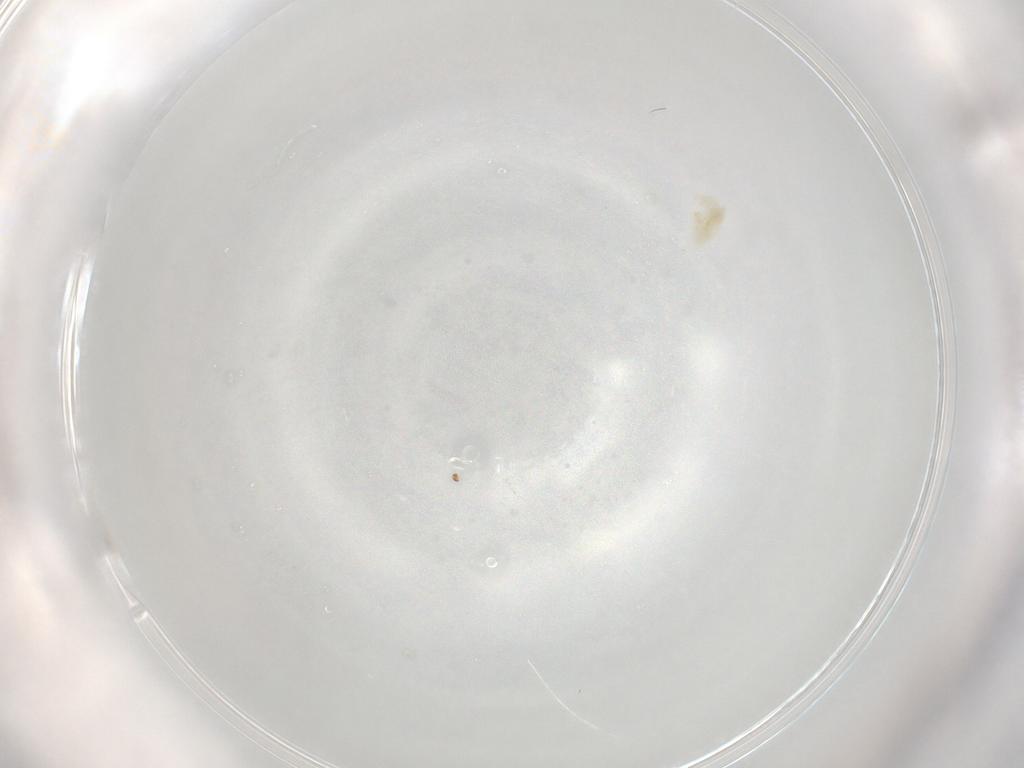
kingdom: Animalia
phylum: Arthropoda
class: Arachnida
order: Trombidiformes
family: Eupodidae
